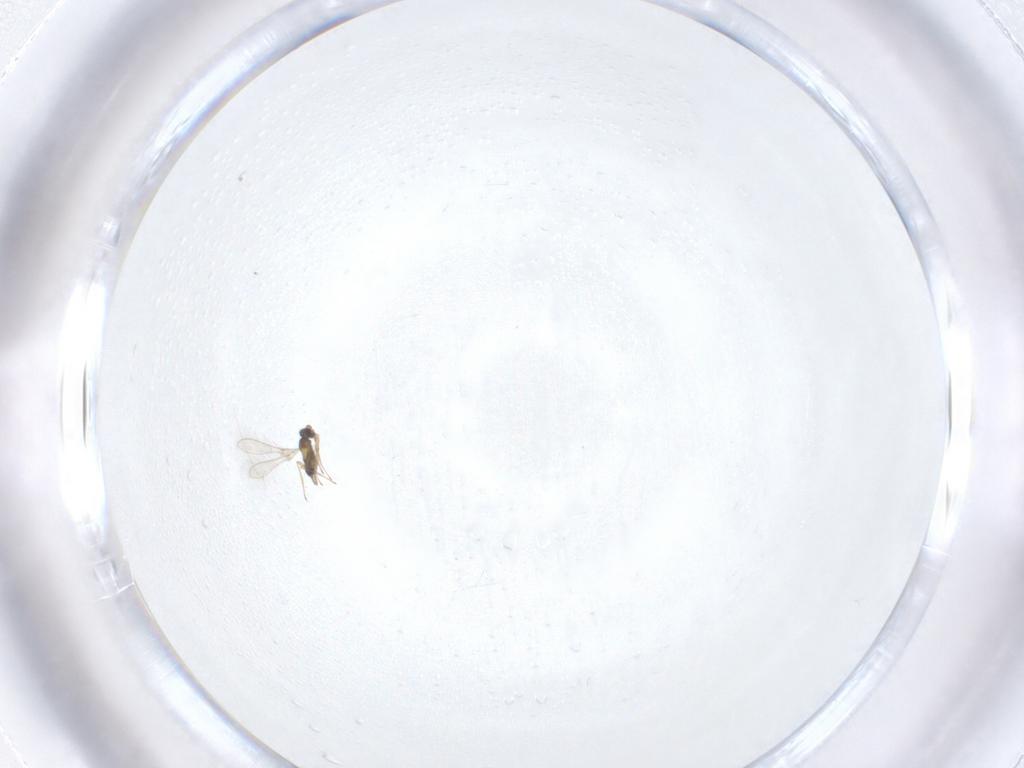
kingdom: Animalia
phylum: Arthropoda
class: Insecta
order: Hymenoptera
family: Mymaridae
